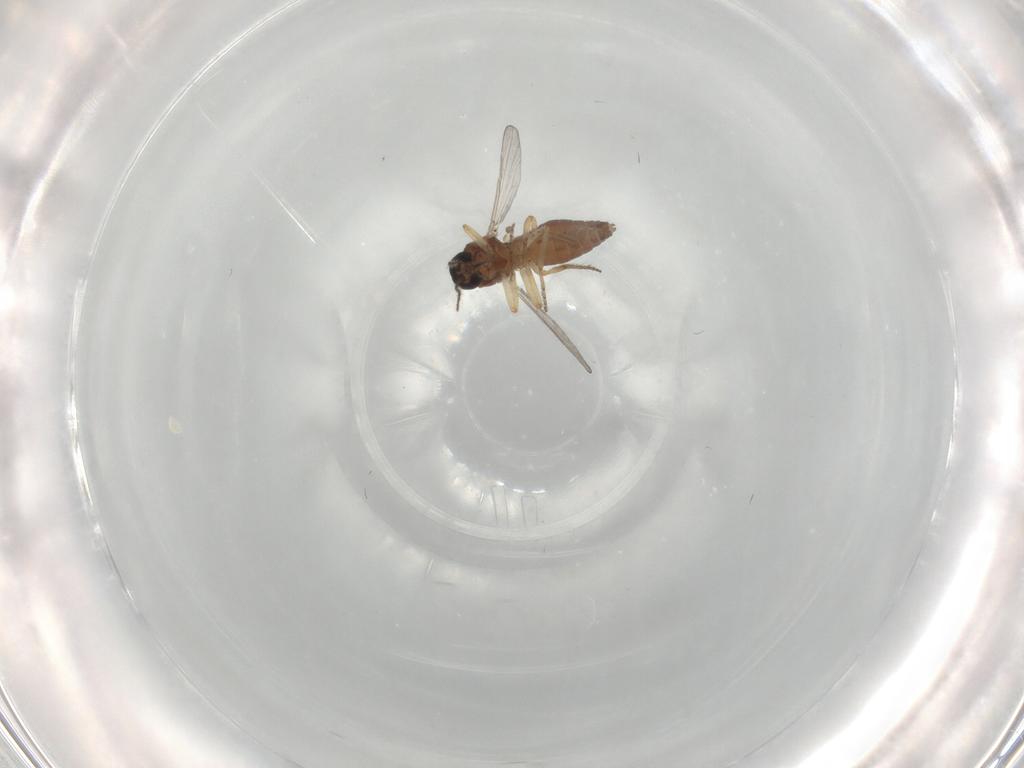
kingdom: Animalia
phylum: Arthropoda
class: Insecta
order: Diptera
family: Ceratopogonidae
